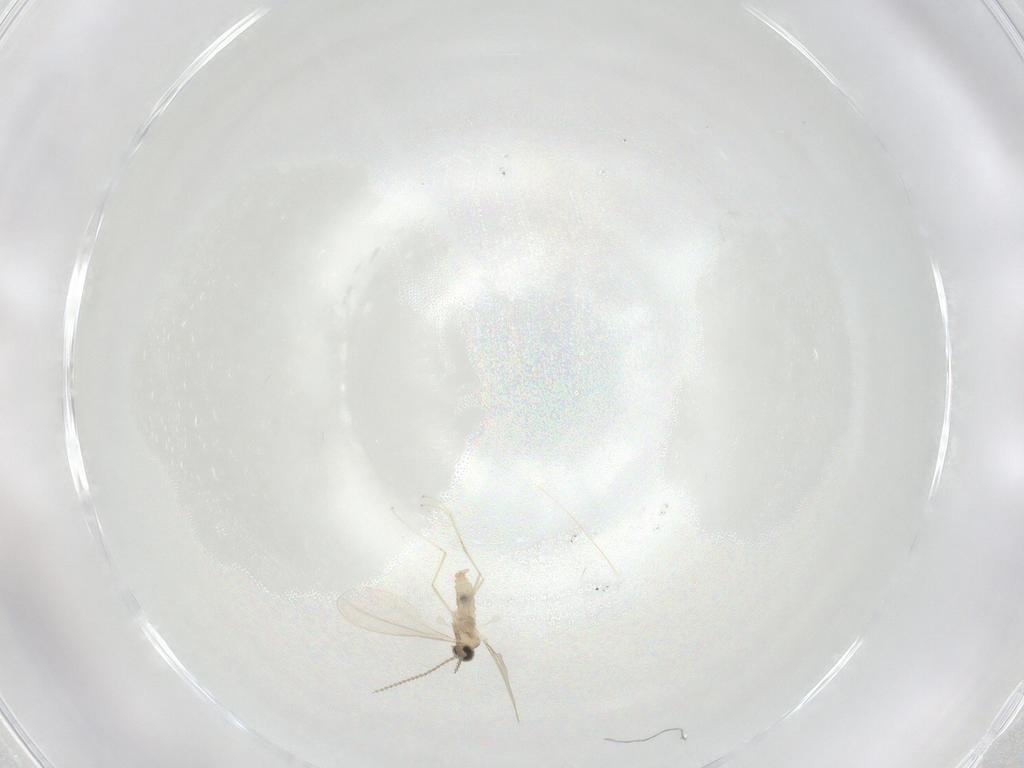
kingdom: Animalia
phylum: Arthropoda
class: Insecta
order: Diptera
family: Cecidomyiidae
